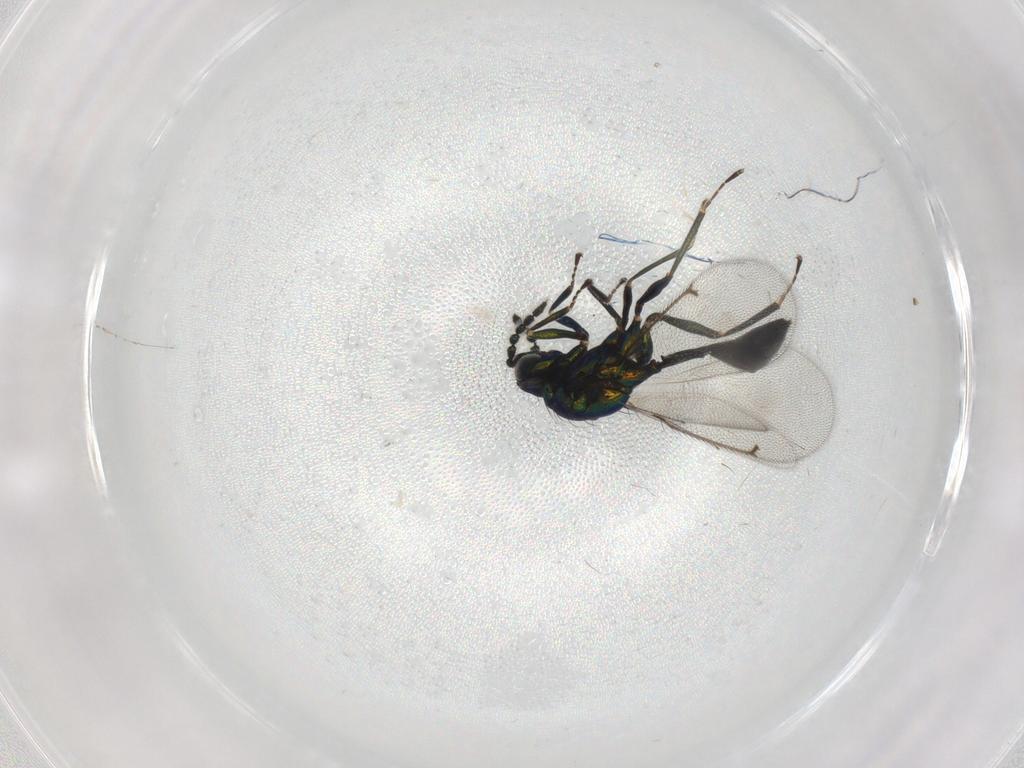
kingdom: Animalia
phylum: Arthropoda
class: Insecta
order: Hymenoptera
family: Eulophidae
